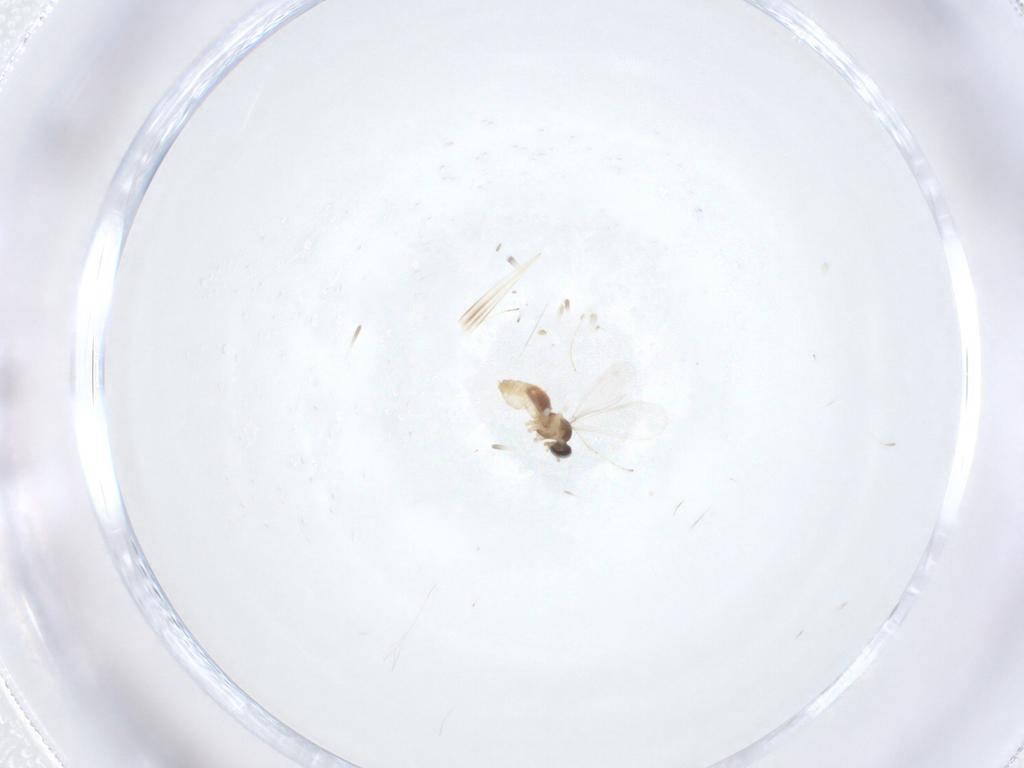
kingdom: Animalia
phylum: Arthropoda
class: Insecta
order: Diptera
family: Cecidomyiidae
